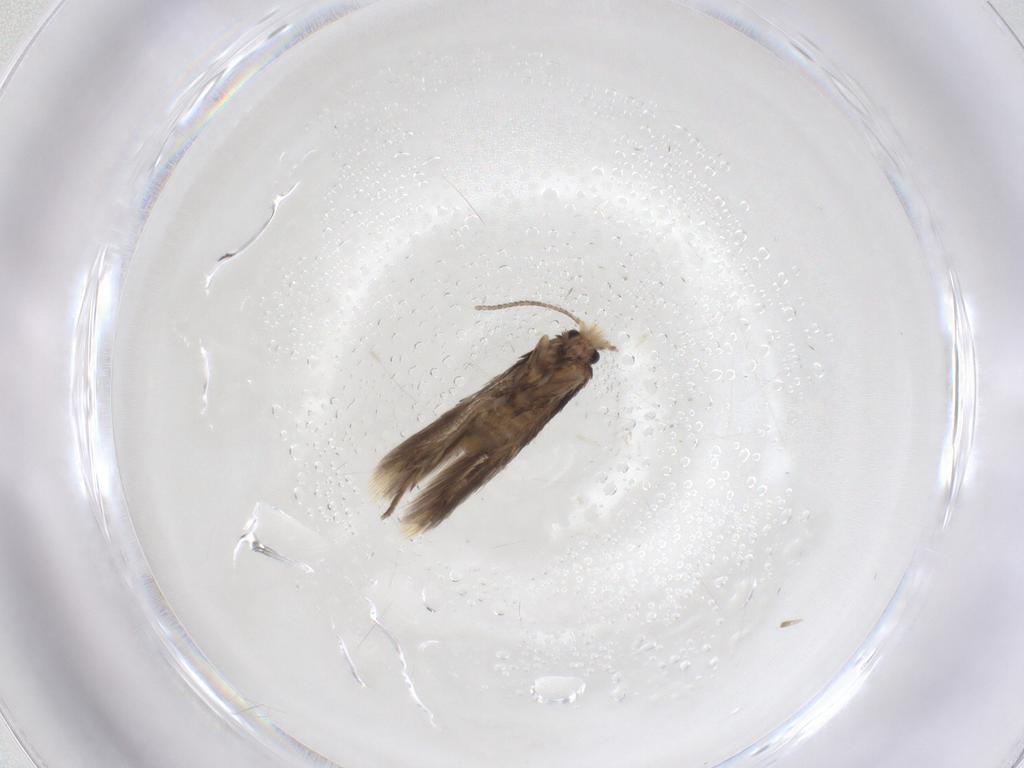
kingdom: Animalia
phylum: Arthropoda
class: Insecta
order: Lepidoptera
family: Nepticulidae
